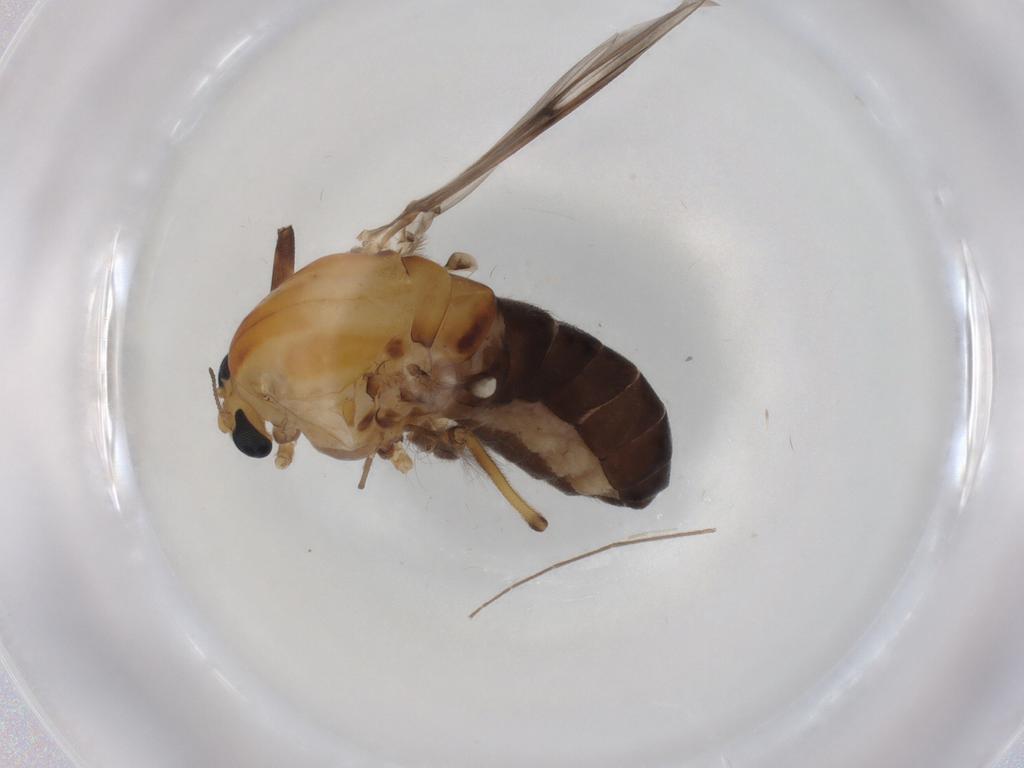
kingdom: Animalia
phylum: Arthropoda
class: Insecta
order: Diptera
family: Muscidae
